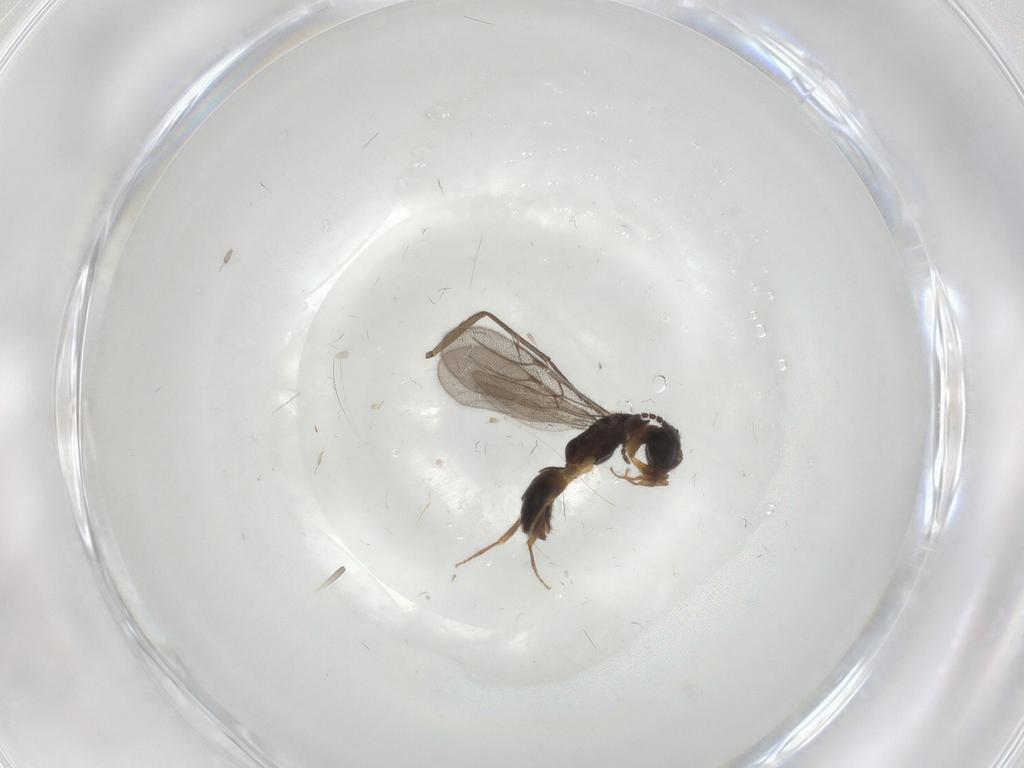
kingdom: Animalia
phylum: Arthropoda
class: Insecta
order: Hymenoptera
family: Bethylidae
